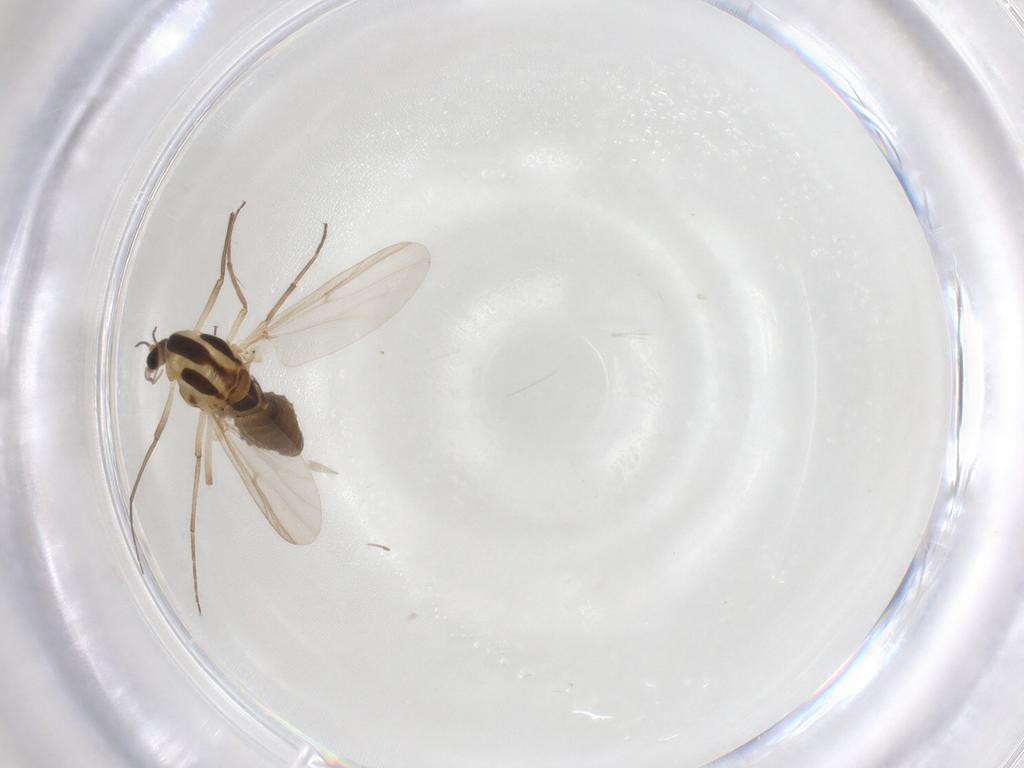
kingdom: Animalia
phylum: Arthropoda
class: Insecta
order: Diptera
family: Chironomidae
